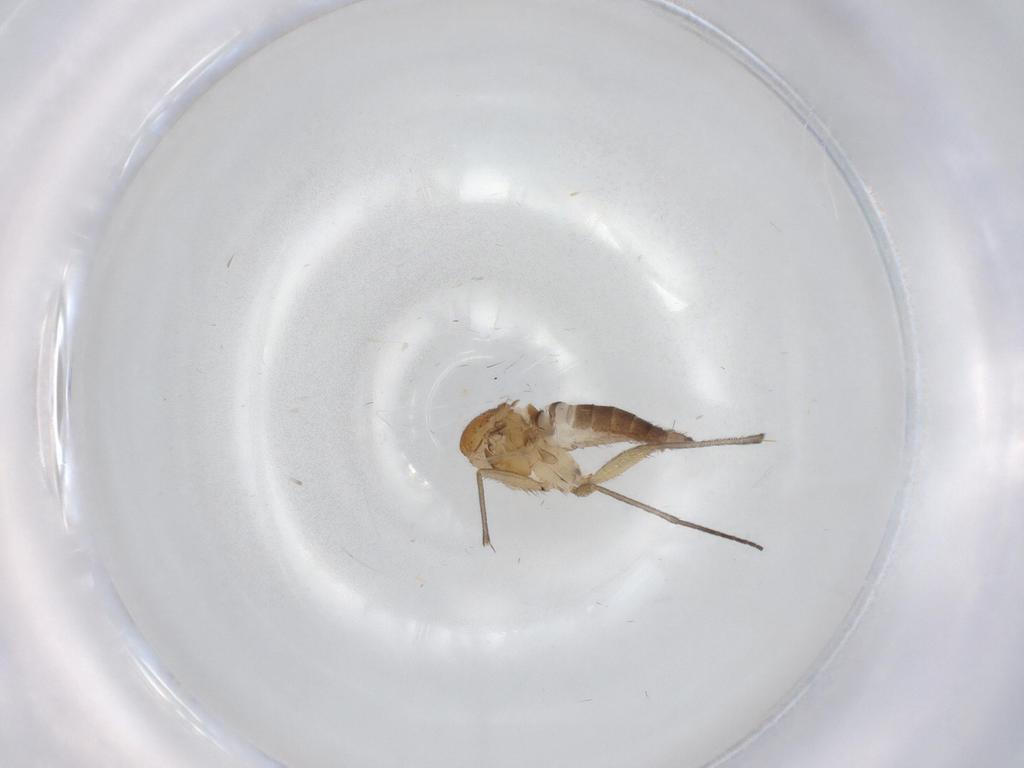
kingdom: Animalia
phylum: Arthropoda
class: Insecta
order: Diptera
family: Sciaridae
